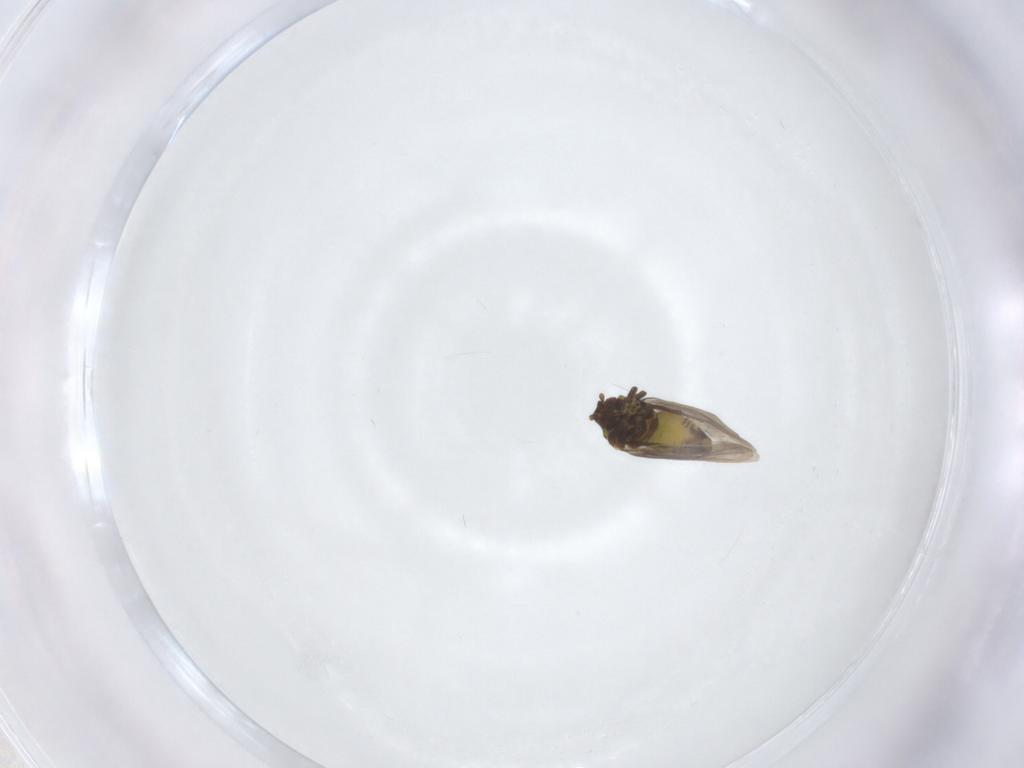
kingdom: Animalia
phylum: Arthropoda
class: Insecta
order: Hemiptera
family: Aleyrodidae
